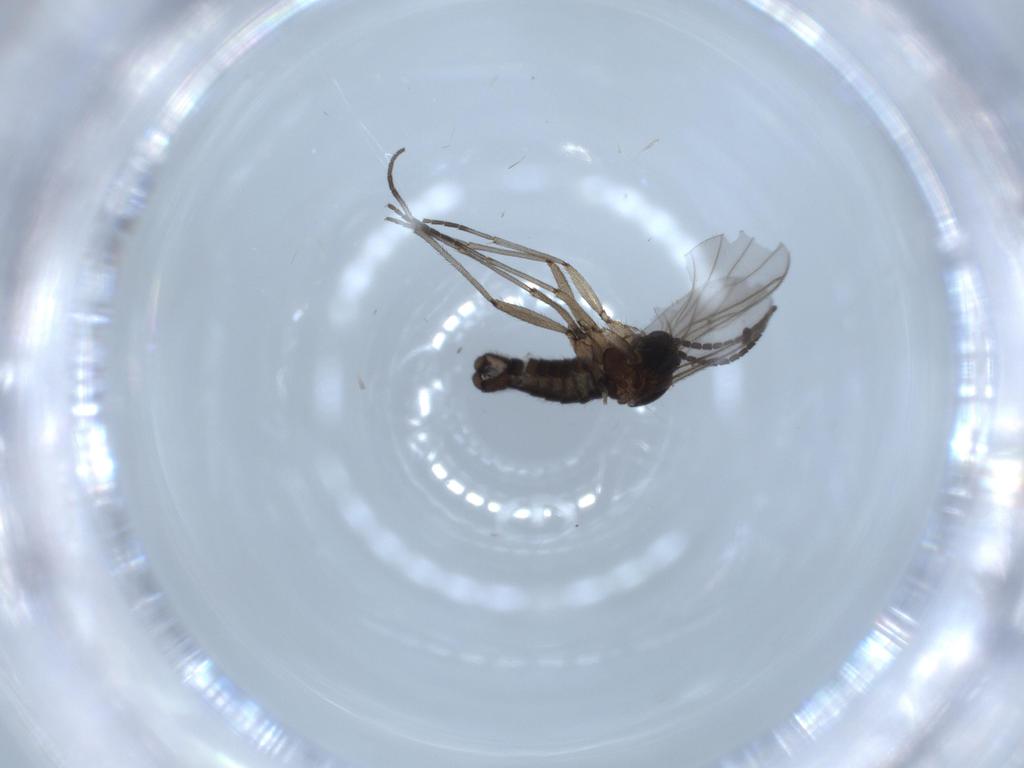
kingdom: Animalia
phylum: Arthropoda
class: Insecta
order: Diptera
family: Sciaridae
